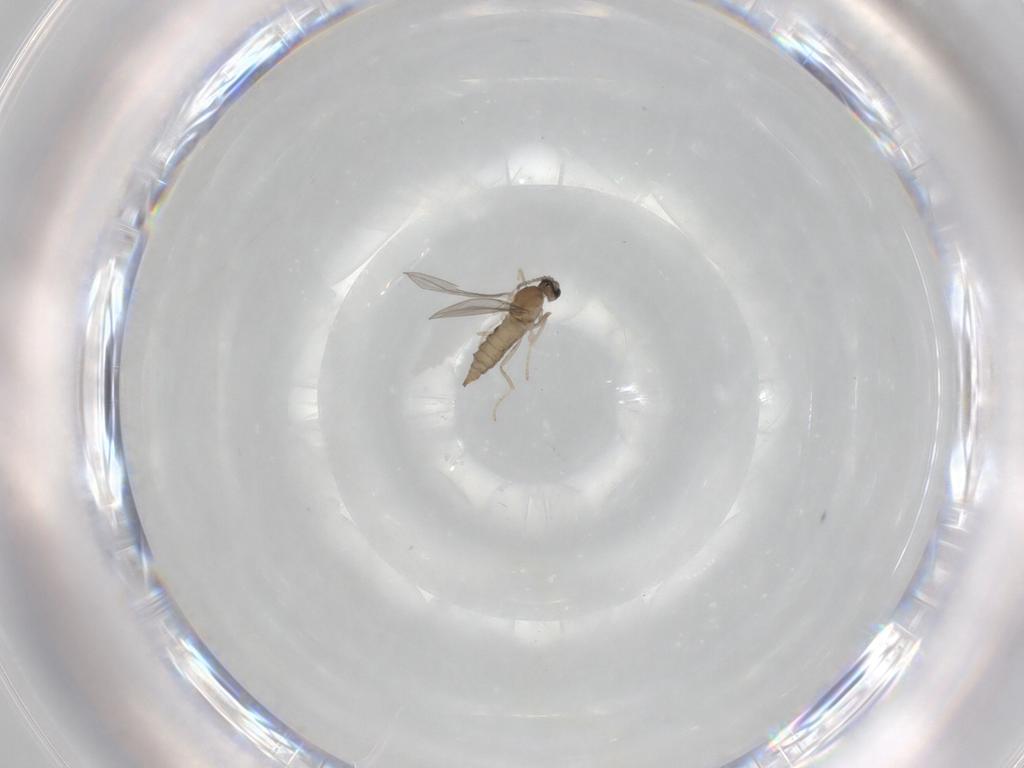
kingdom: Animalia
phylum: Arthropoda
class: Insecta
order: Diptera
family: Cecidomyiidae
